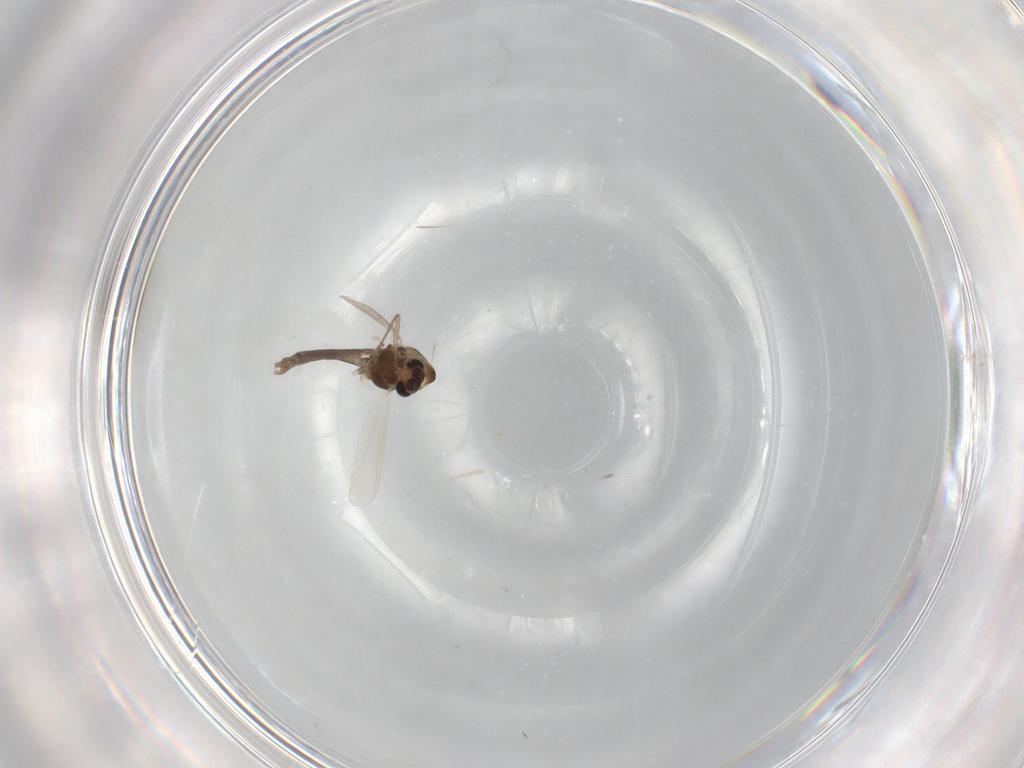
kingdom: Animalia
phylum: Arthropoda
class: Insecta
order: Diptera
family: Chironomidae
